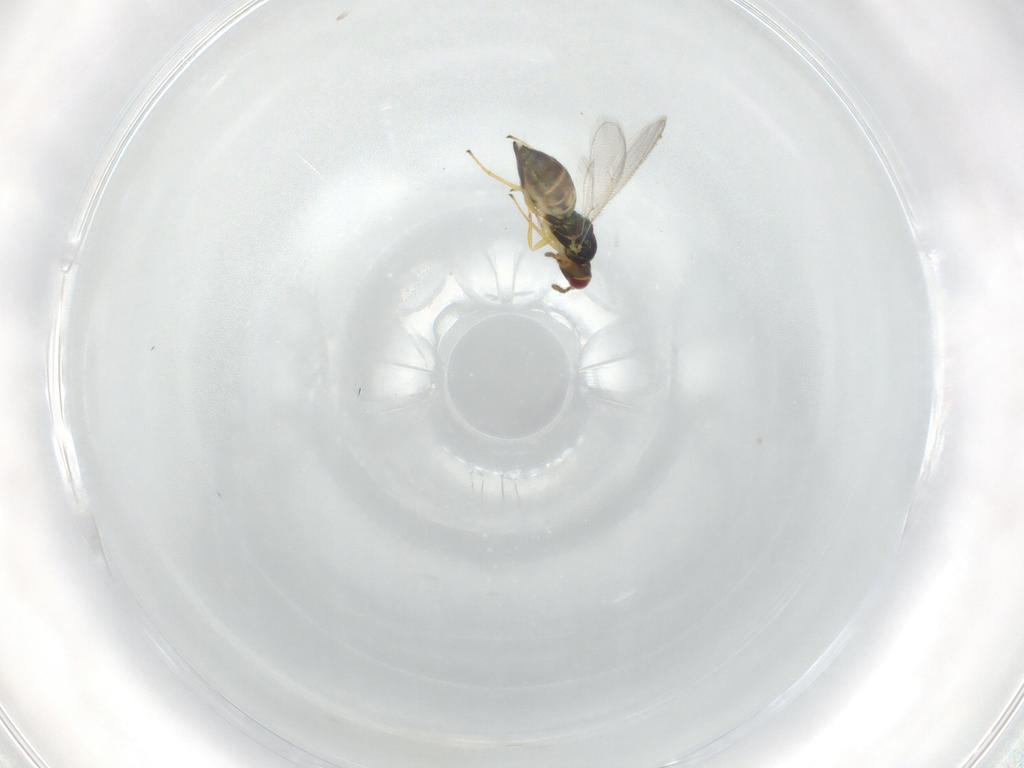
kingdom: Animalia
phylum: Arthropoda
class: Insecta
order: Hymenoptera
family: Eulophidae
